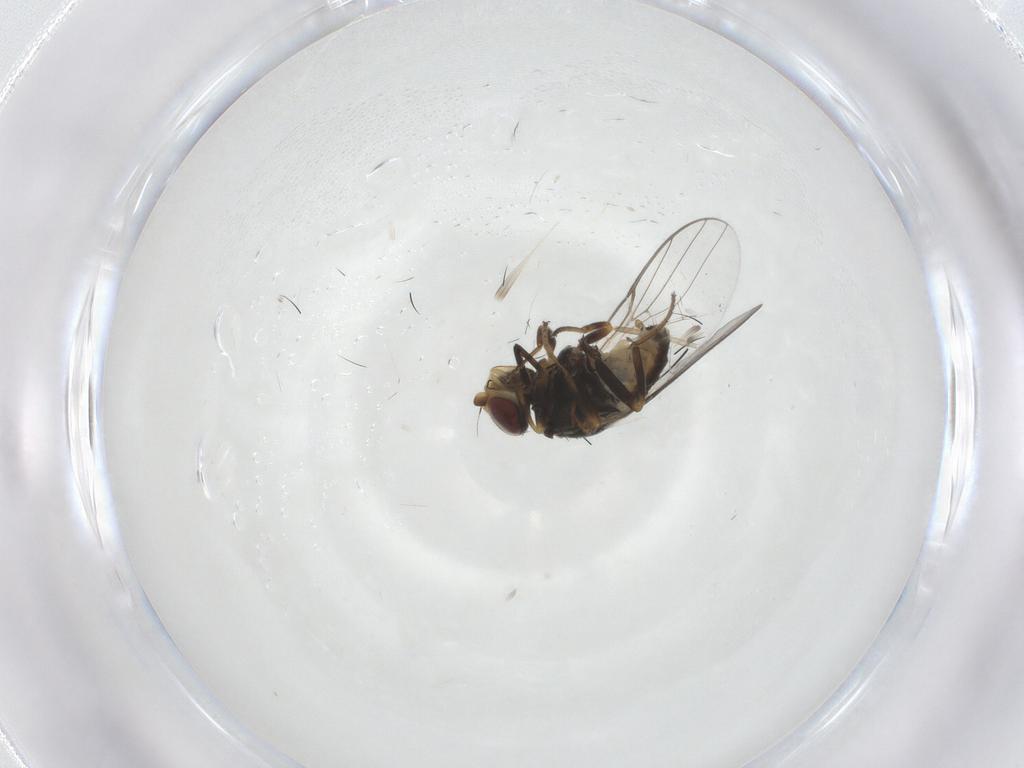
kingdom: Animalia
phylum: Arthropoda
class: Insecta
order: Diptera
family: Chloropidae
